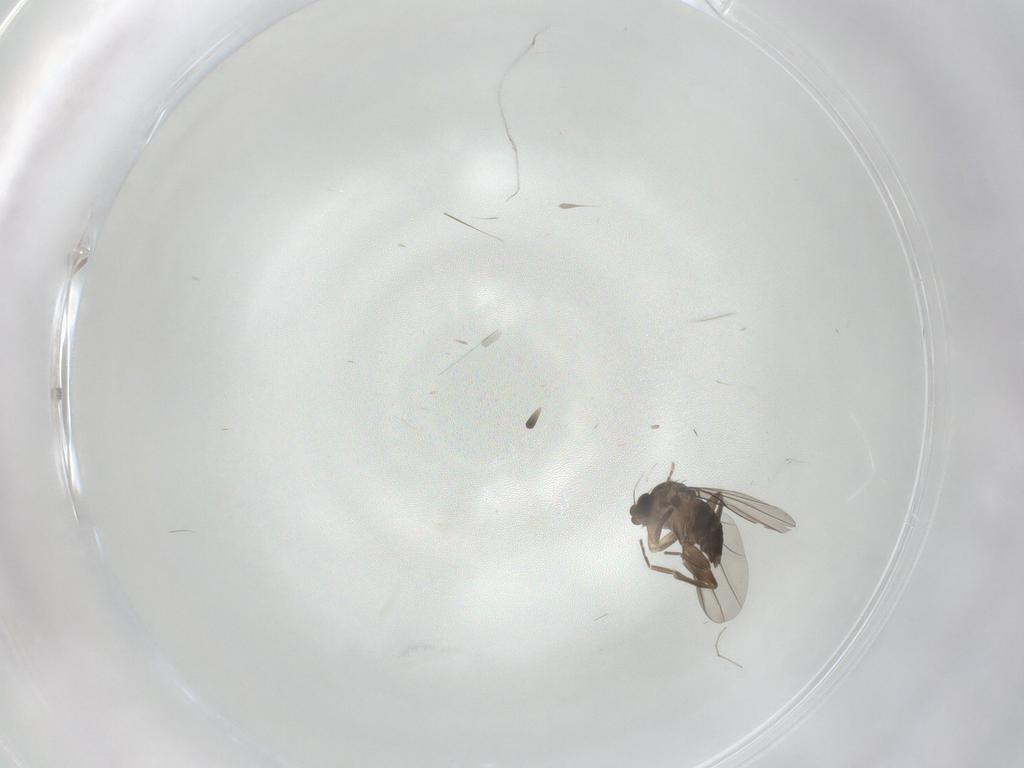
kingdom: Animalia
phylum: Arthropoda
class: Insecta
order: Diptera
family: Phoridae
